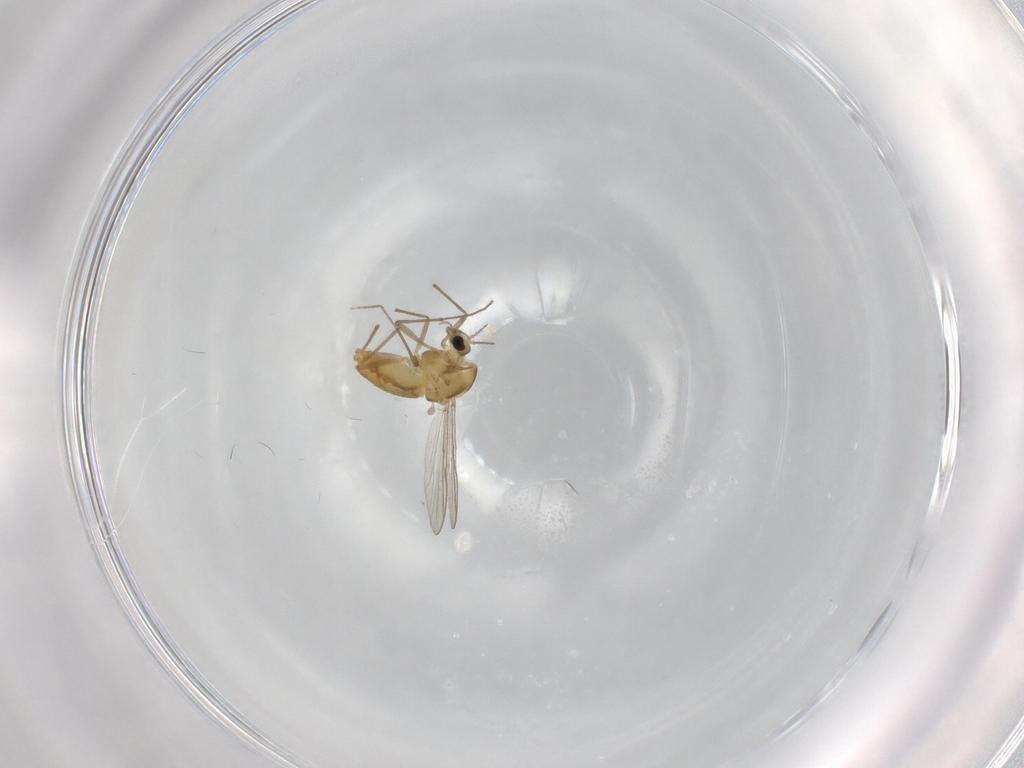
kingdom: Animalia
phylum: Arthropoda
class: Insecta
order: Diptera
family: Chironomidae
